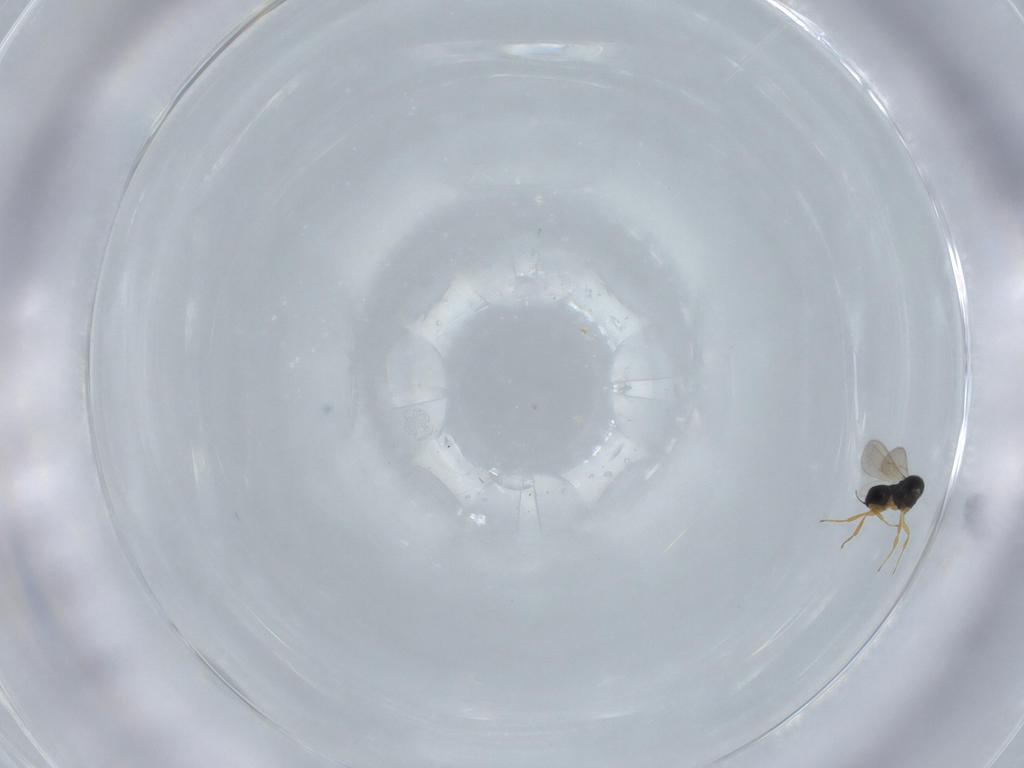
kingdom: Animalia
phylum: Arthropoda
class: Insecta
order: Hymenoptera
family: Scelionidae
